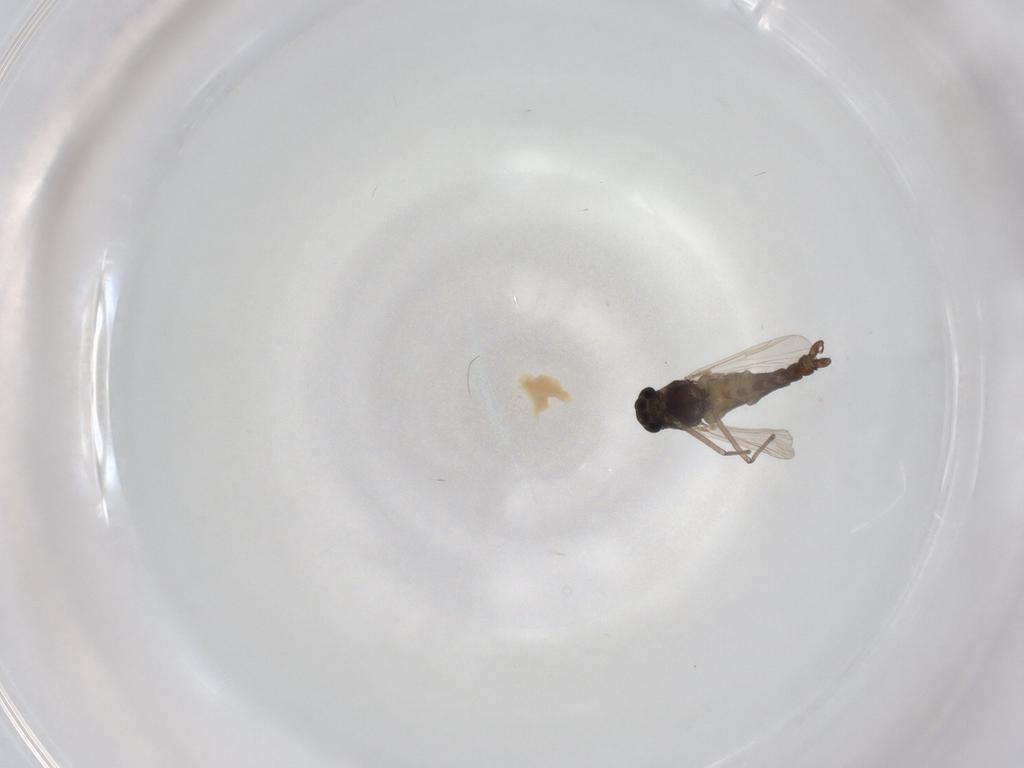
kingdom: Animalia
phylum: Arthropoda
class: Insecta
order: Diptera
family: Chironomidae
